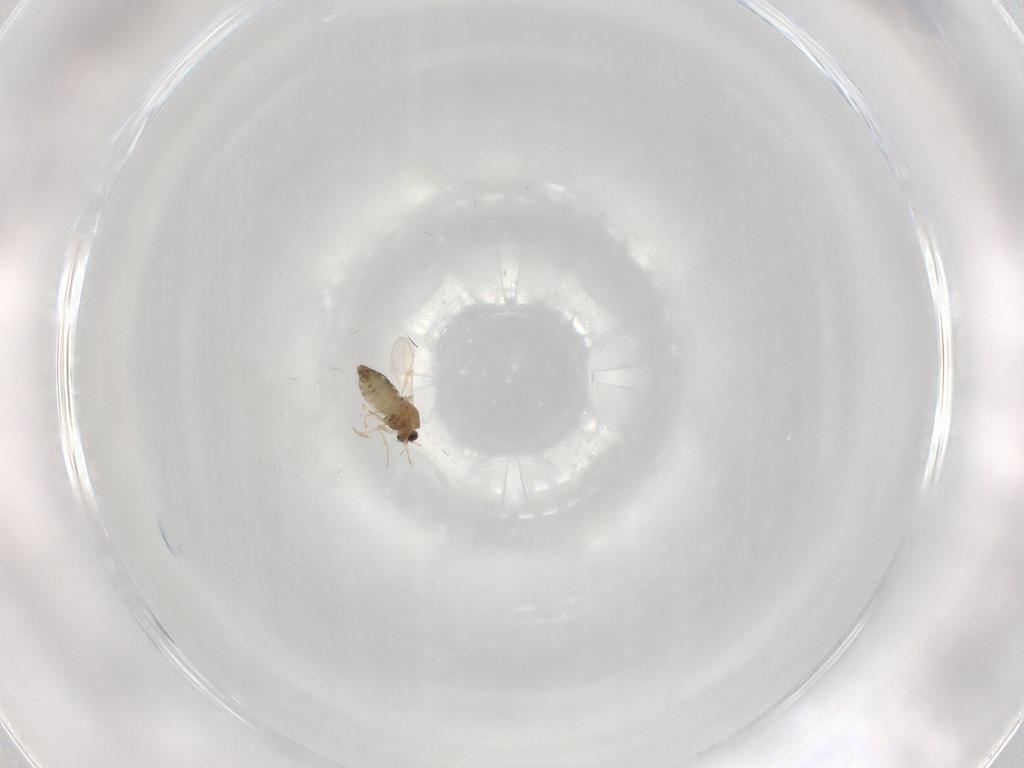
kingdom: Animalia
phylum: Arthropoda
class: Insecta
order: Diptera
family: Chironomidae
